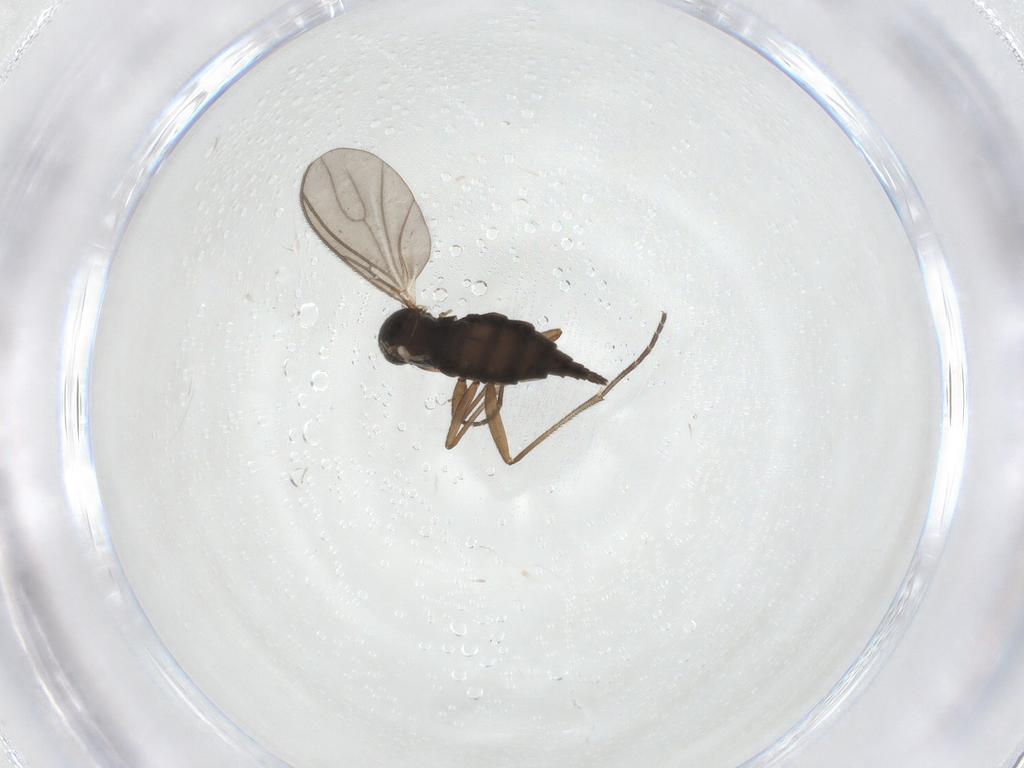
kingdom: Animalia
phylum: Arthropoda
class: Insecta
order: Diptera
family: Sciaridae
